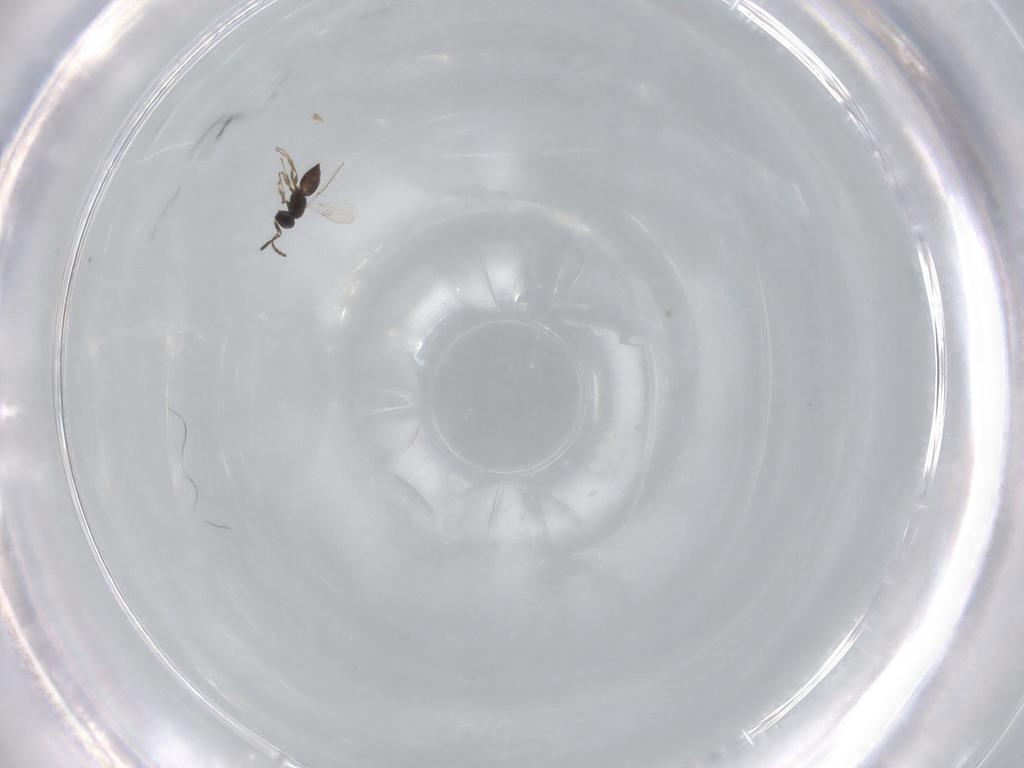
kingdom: Animalia
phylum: Arthropoda
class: Insecta
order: Hymenoptera
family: Scelionidae
